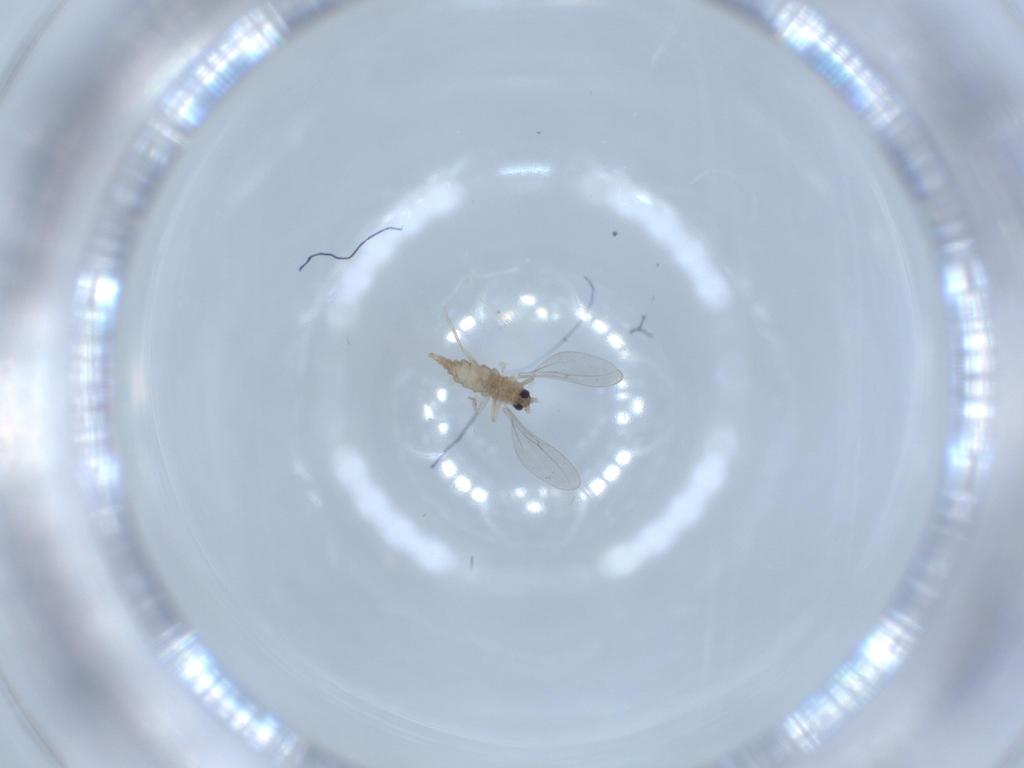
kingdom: Animalia
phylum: Arthropoda
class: Insecta
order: Diptera
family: Cecidomyiidae
